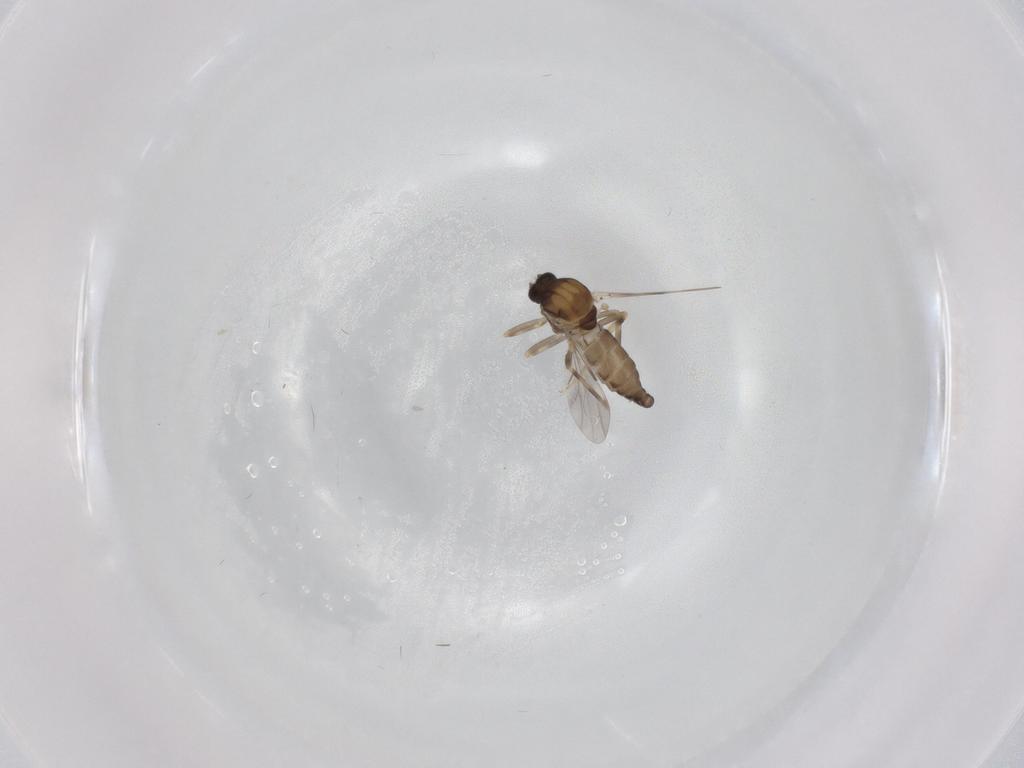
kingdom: Animalia
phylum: Arthropoda
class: Insecta
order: Diptera
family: Ceratopogonidae
